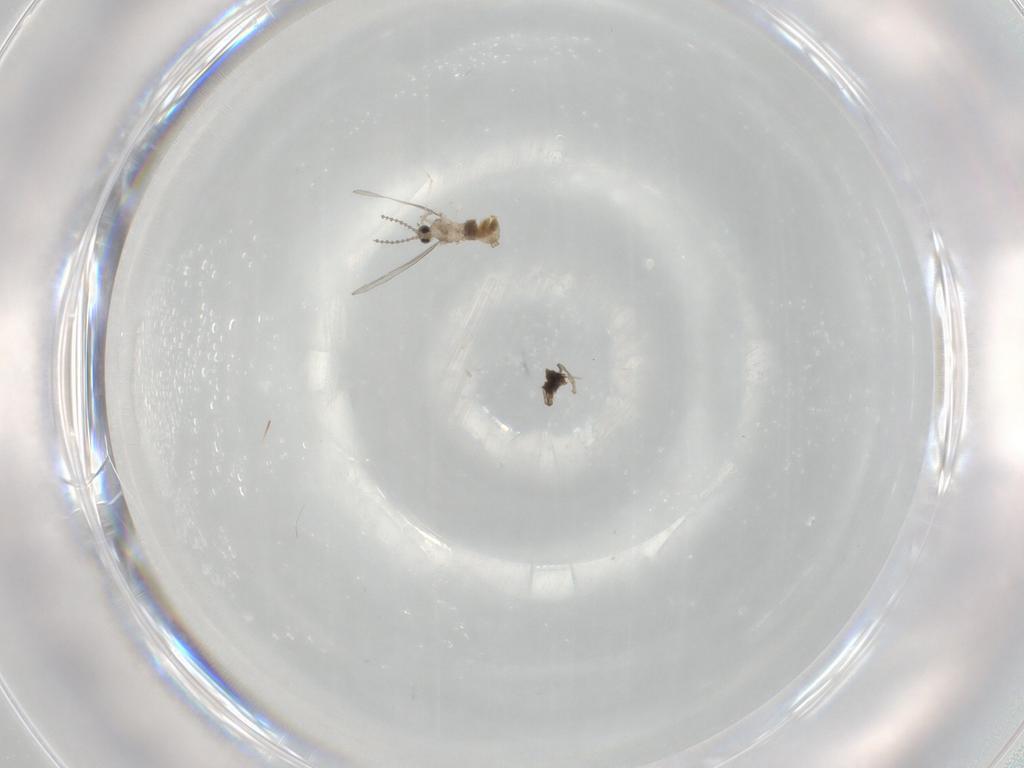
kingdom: Animalia
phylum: Arthropoda
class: Insecta
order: Diptera
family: Cecidomyiidae
